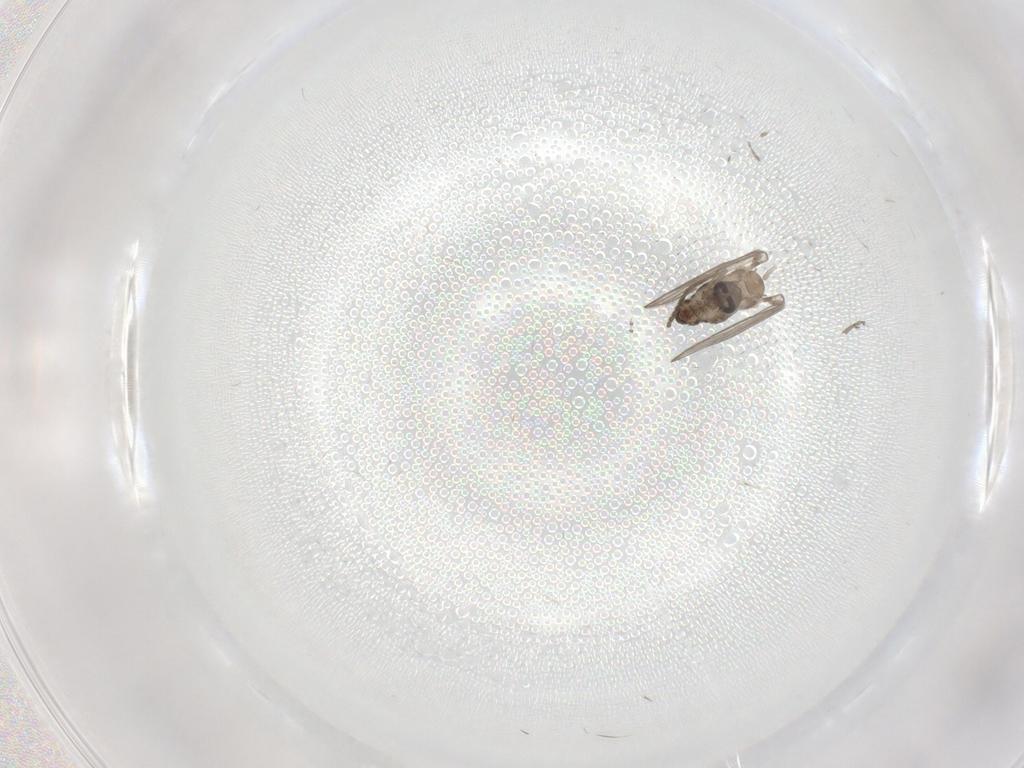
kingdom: Animalia
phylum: Arthropoda
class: Insecta
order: Diptera
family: Psychodidae
